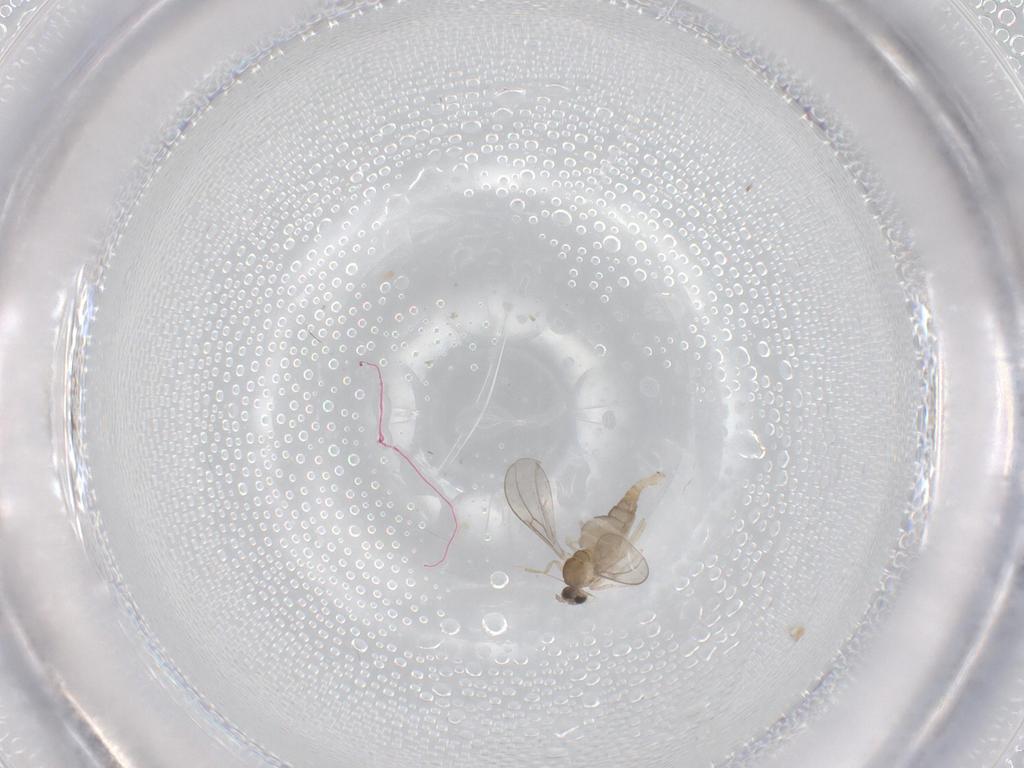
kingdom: Animalia
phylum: Arthropoda
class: Insecta
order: Diptera
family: Cecidomyiidae
